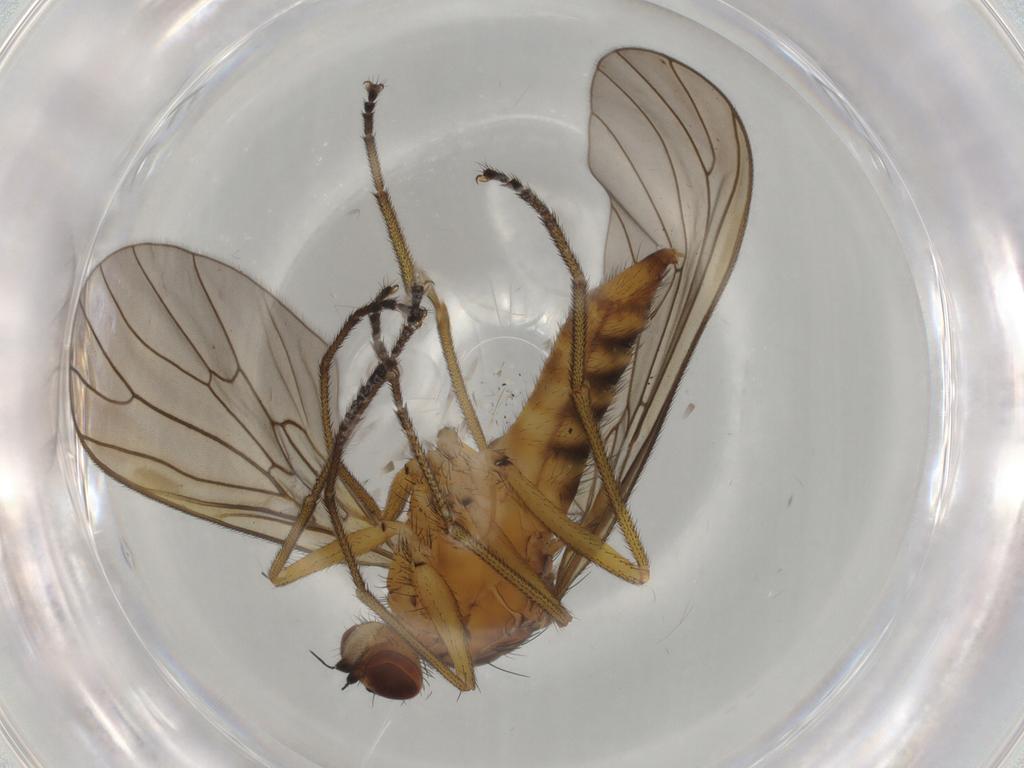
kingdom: Animalia
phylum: Arthropoda
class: Insecta
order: Diptera
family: Brachystomatidae
